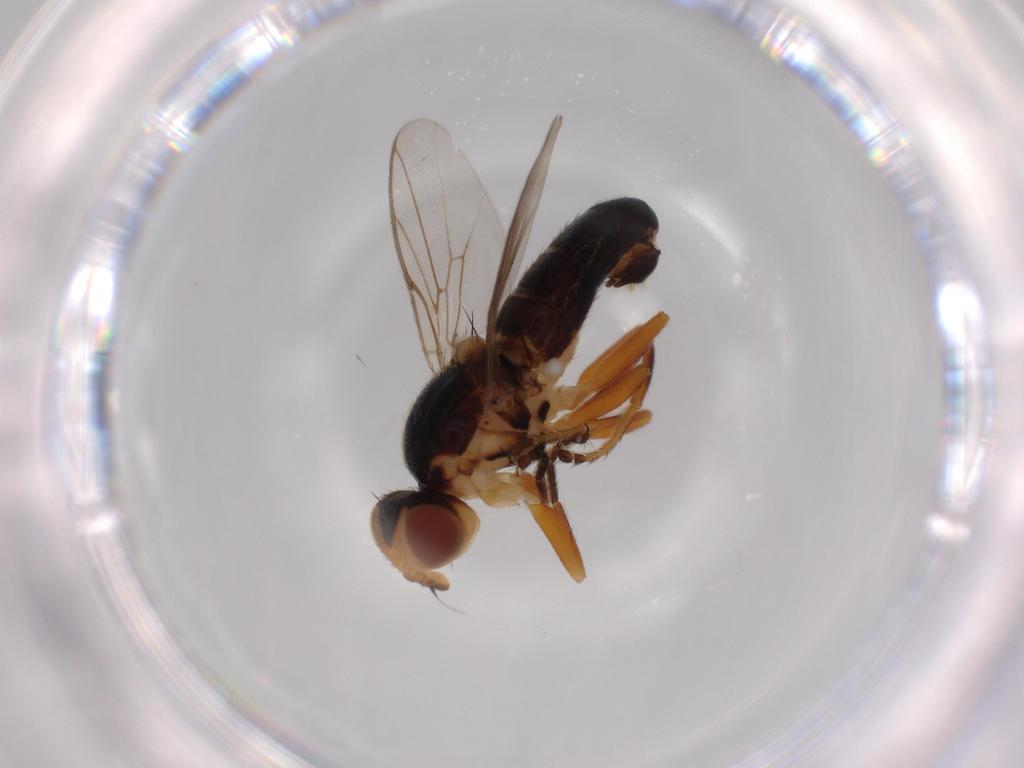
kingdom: Animalia
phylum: Arthropoda
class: Insecta
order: Diptera
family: Chloropidae
